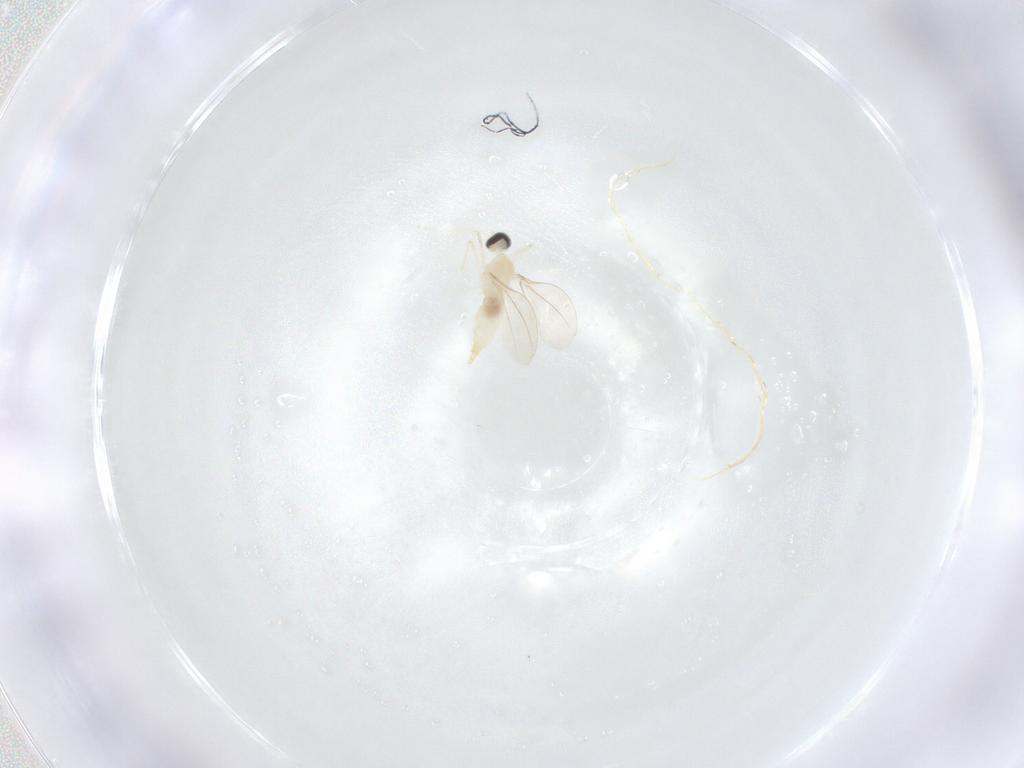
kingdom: Animalia
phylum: Arthropoda
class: Insecta
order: Diptera
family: Cecidomyiidae
